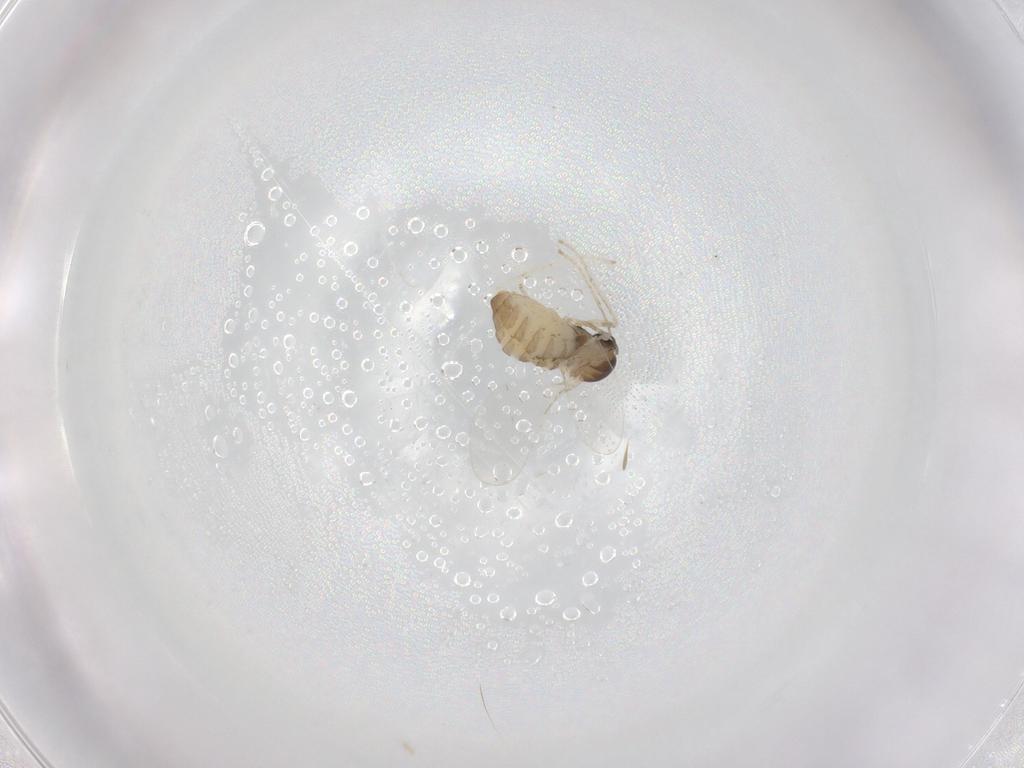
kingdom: Animalia
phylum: Arthropoda
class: Insecta
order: Diptera
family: Cecidomyiidae
